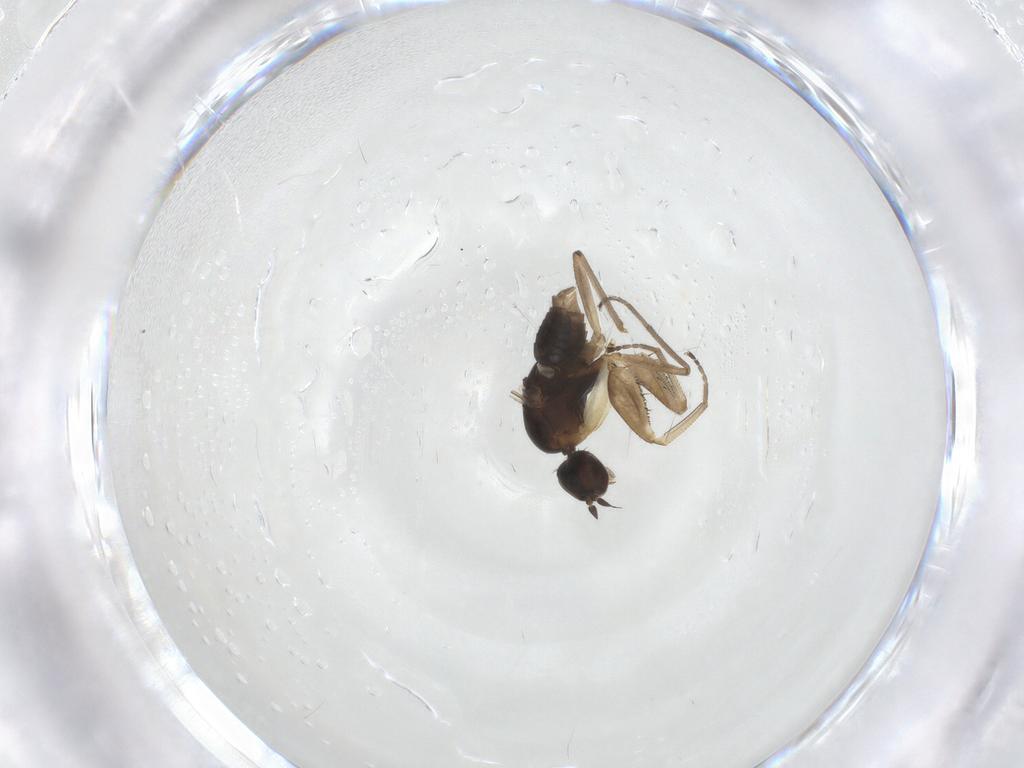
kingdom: Animalia
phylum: Arthropoda
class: Insecta
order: Diptera
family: Empididae
